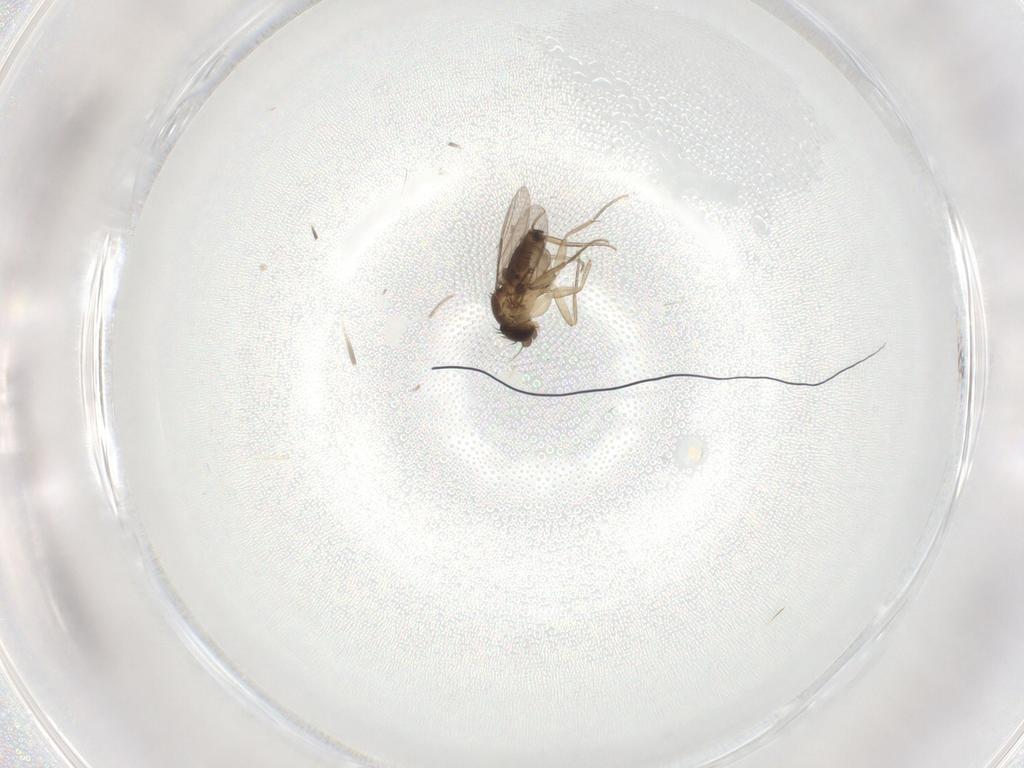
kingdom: Animalia
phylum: Arthropoda
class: Insecta
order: Diptera
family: Phoridae
